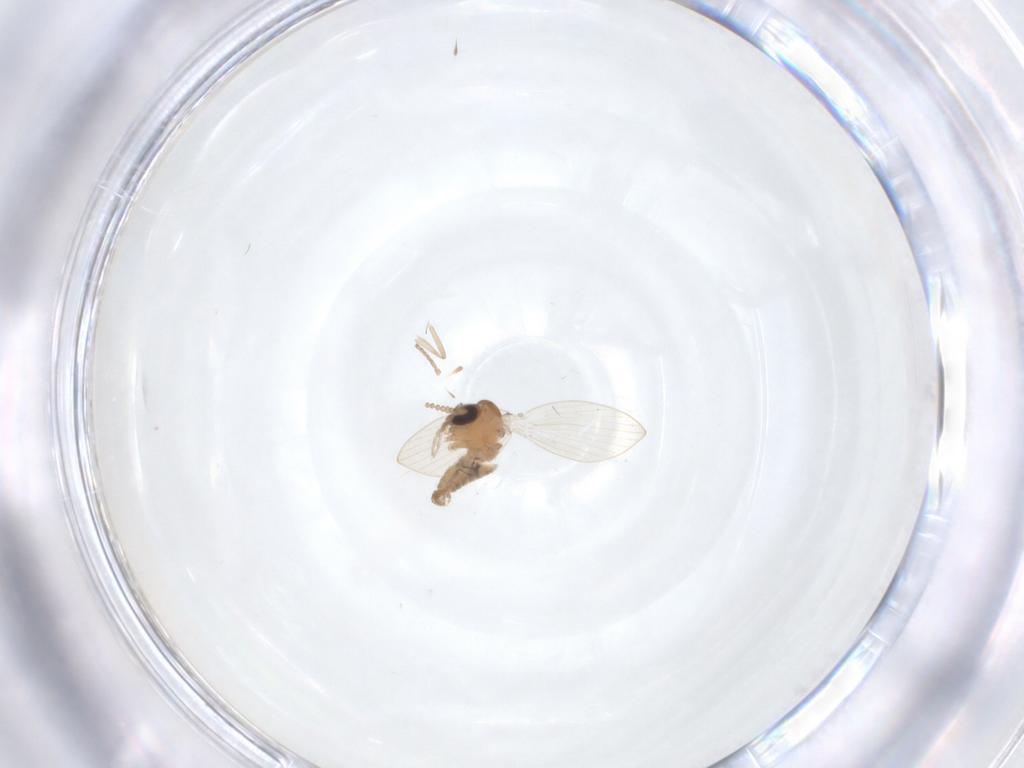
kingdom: Animalia
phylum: Arthropoda
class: Insecta
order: Diptera
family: Psychodidae
